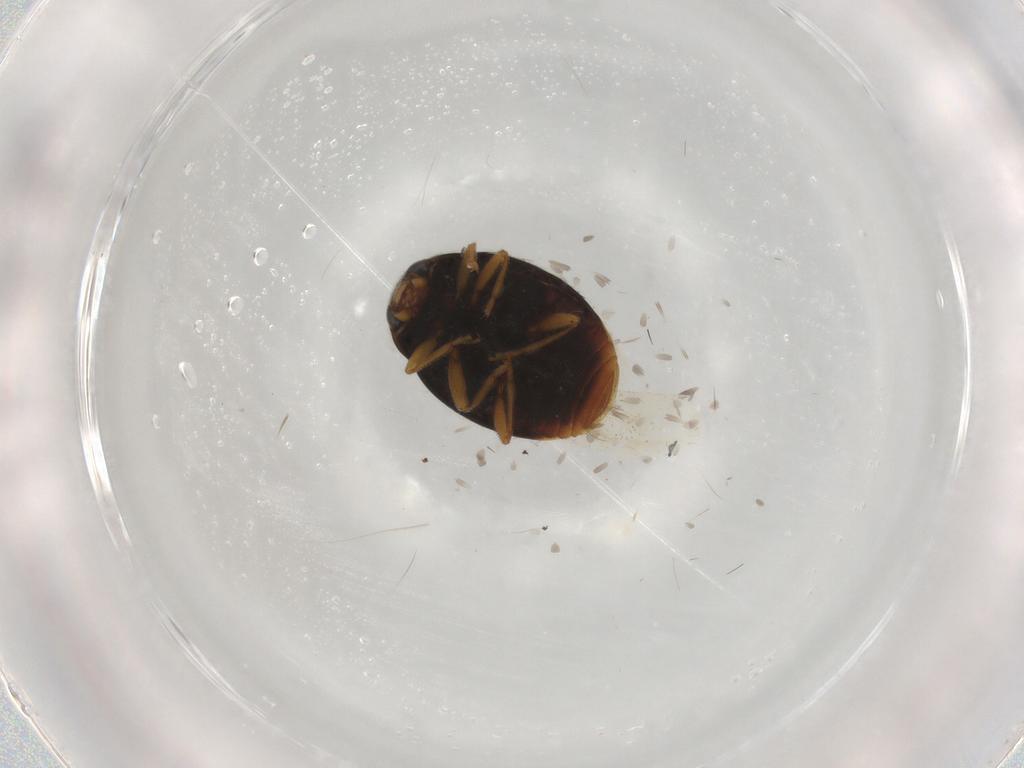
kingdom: Animalia
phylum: Arthropoda
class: Insecta
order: Coleoptera
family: Coccinellidae
